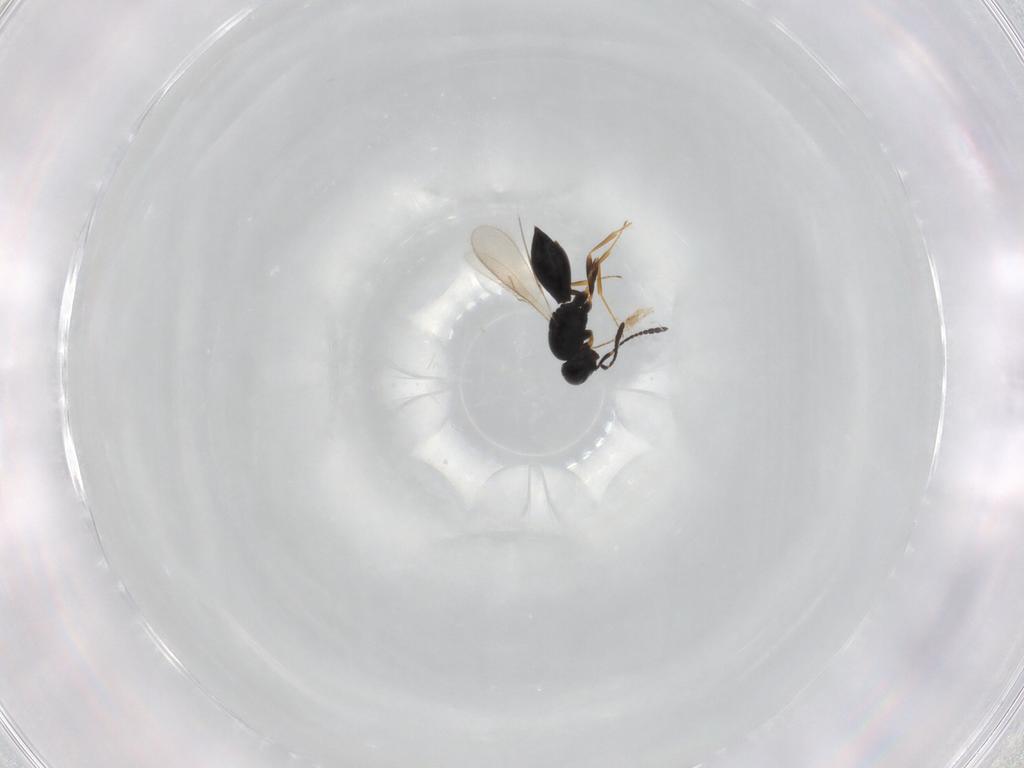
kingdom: Animalia
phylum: Arthropoda
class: Insecta
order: Hymenoptera
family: Scelionidae
